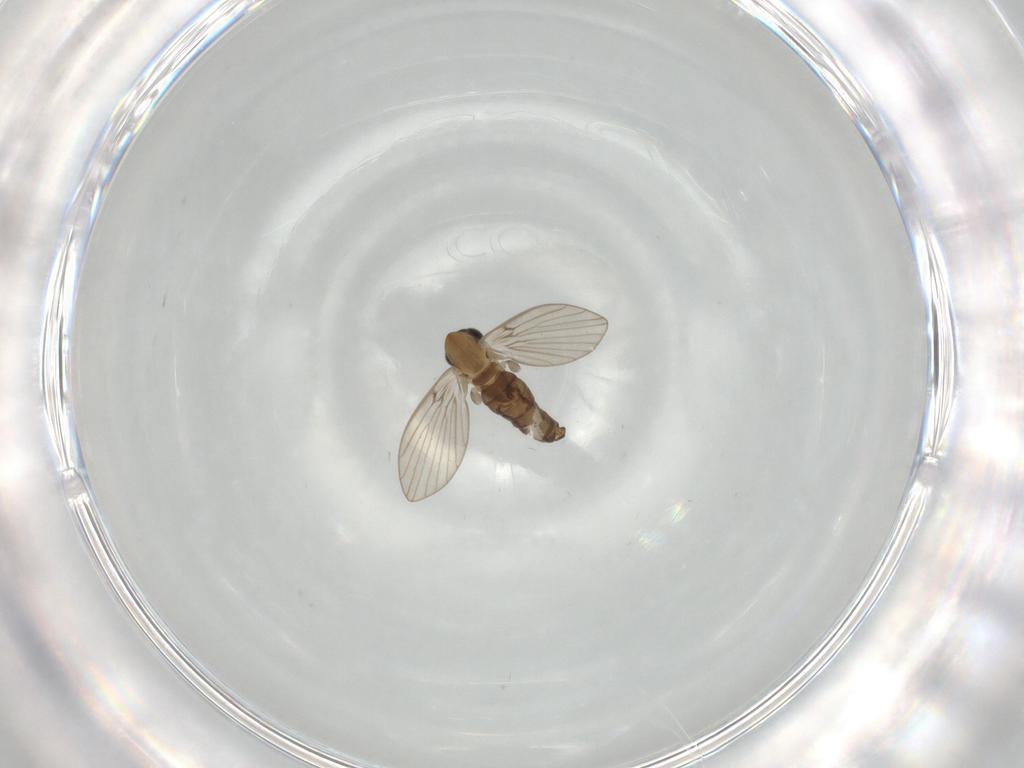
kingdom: Animalia
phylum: Arthropoda
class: Insecta
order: Diptera
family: Psychodidae
